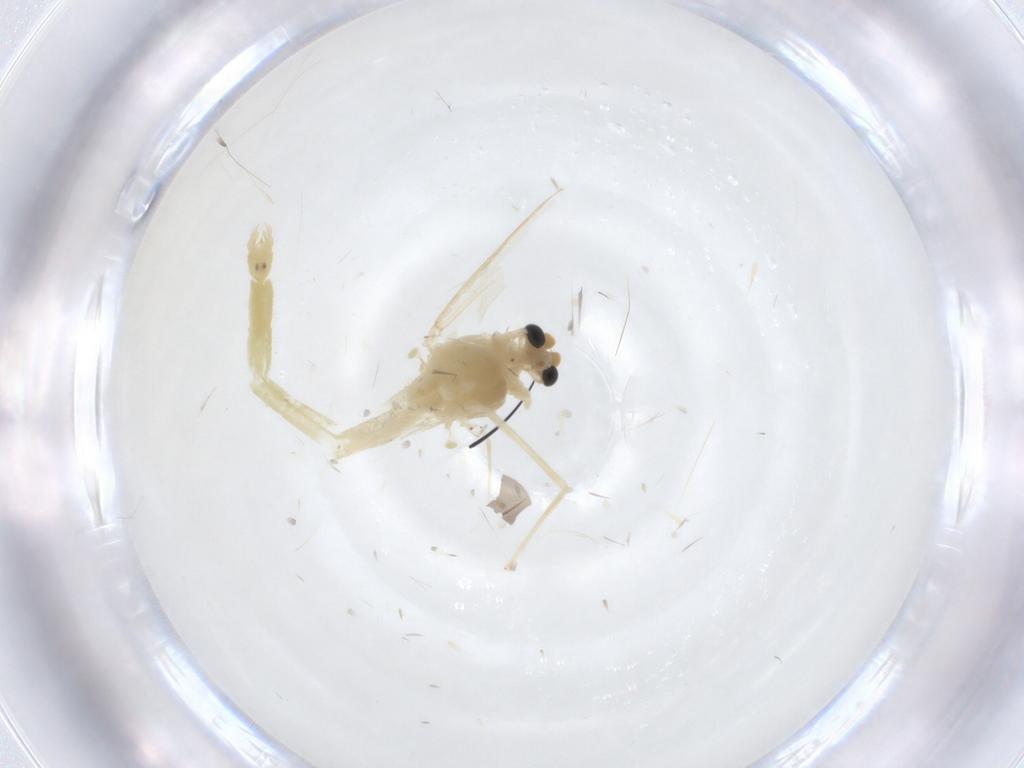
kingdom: Animalia
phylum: Arthropoda
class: Insecta
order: Diptera
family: Chironomidae
